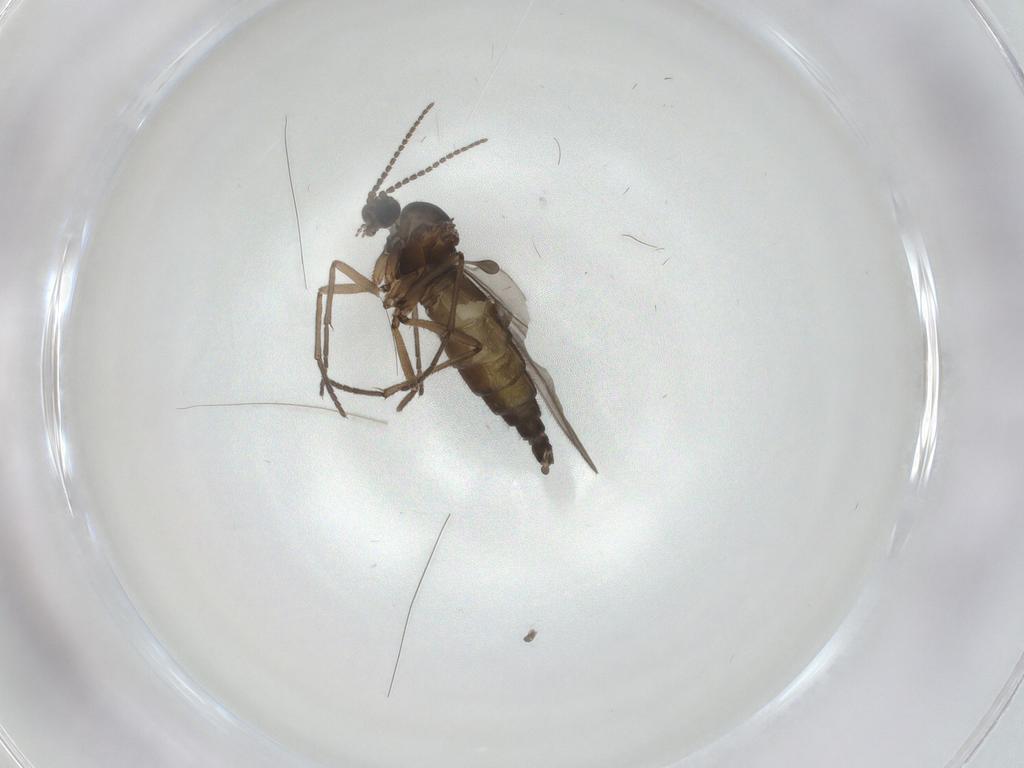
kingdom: Animalia
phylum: Arthropoda
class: Insecta
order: Diptera
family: Sciaridae
